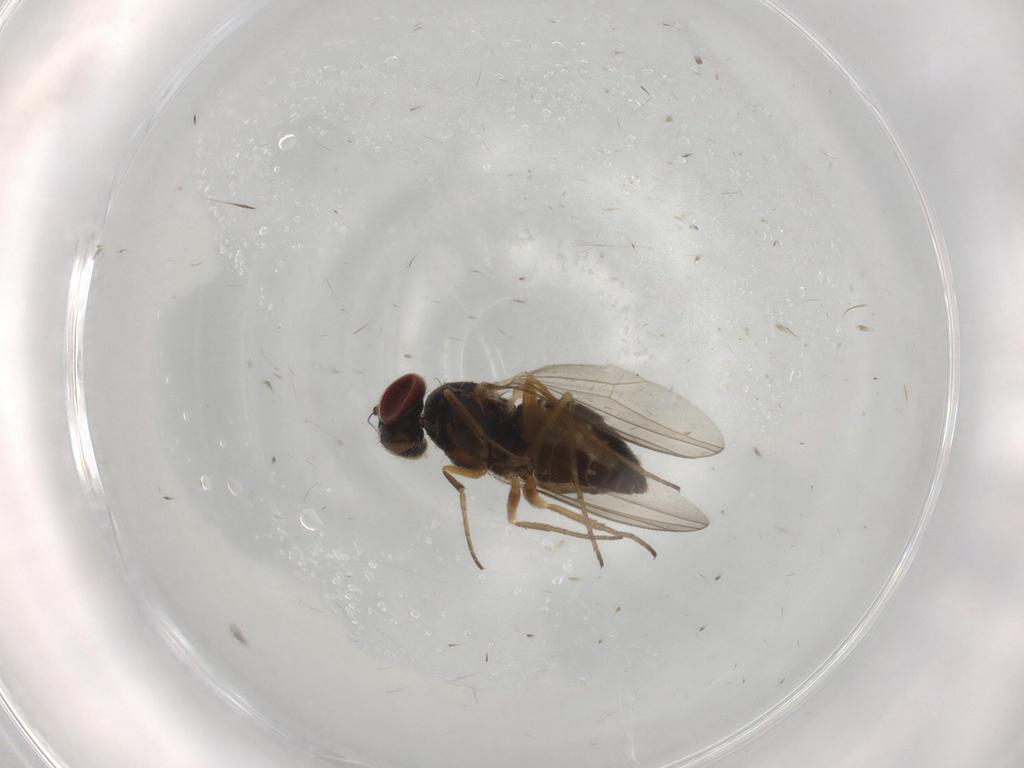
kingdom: Animalia
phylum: Arthropoda
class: Insecta
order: Diptera
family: Dolichopodidae
